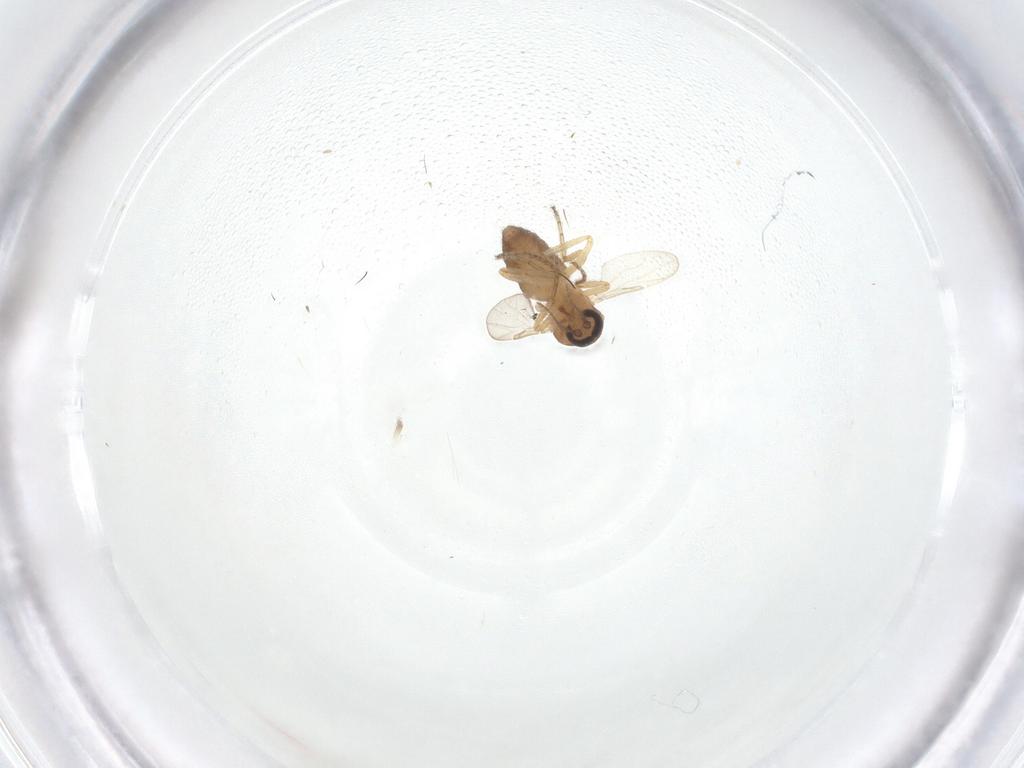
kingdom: Animalia
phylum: Arthropoda
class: Insecta
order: Diptera
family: Ceratopogonidae
